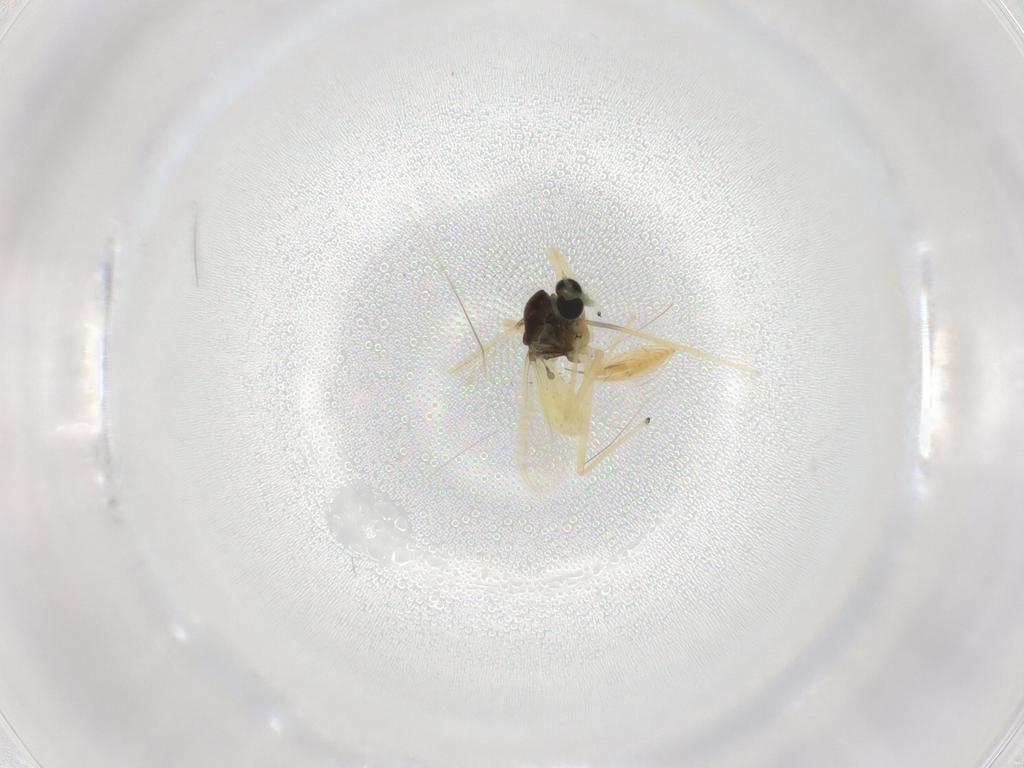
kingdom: Animalia
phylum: Arthropoda
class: Insecta
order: Diptera
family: Chironomidae
